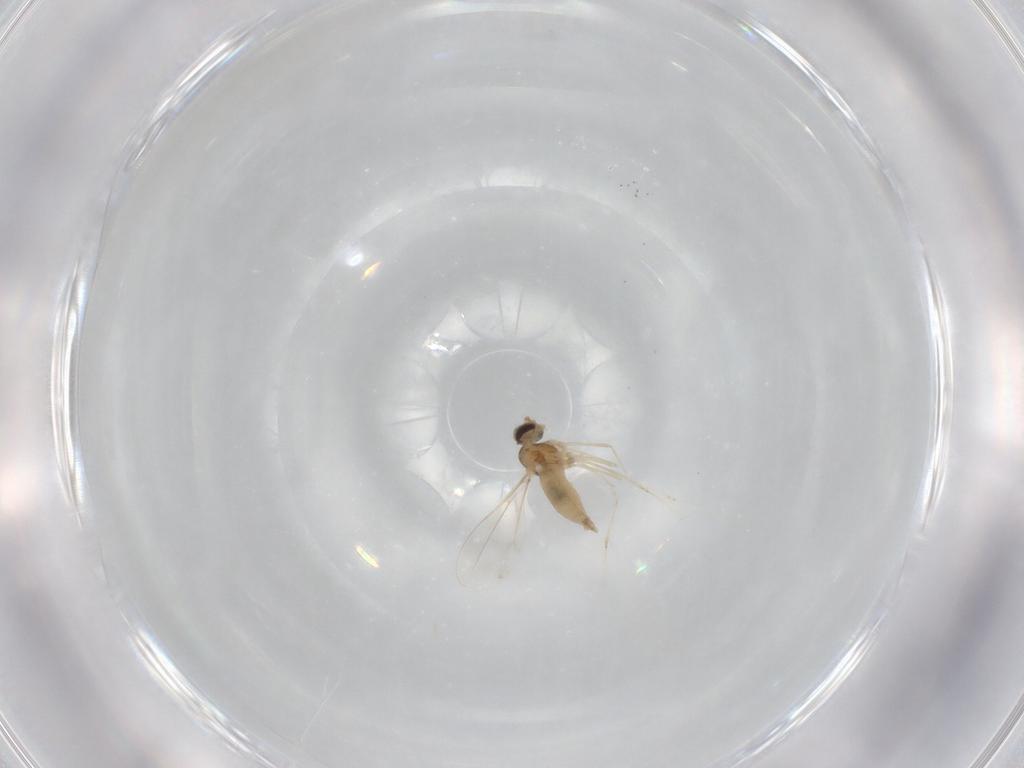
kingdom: Animalia
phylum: Arthropoda
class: Insecta
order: Diptera
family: Cecidomyiidae
